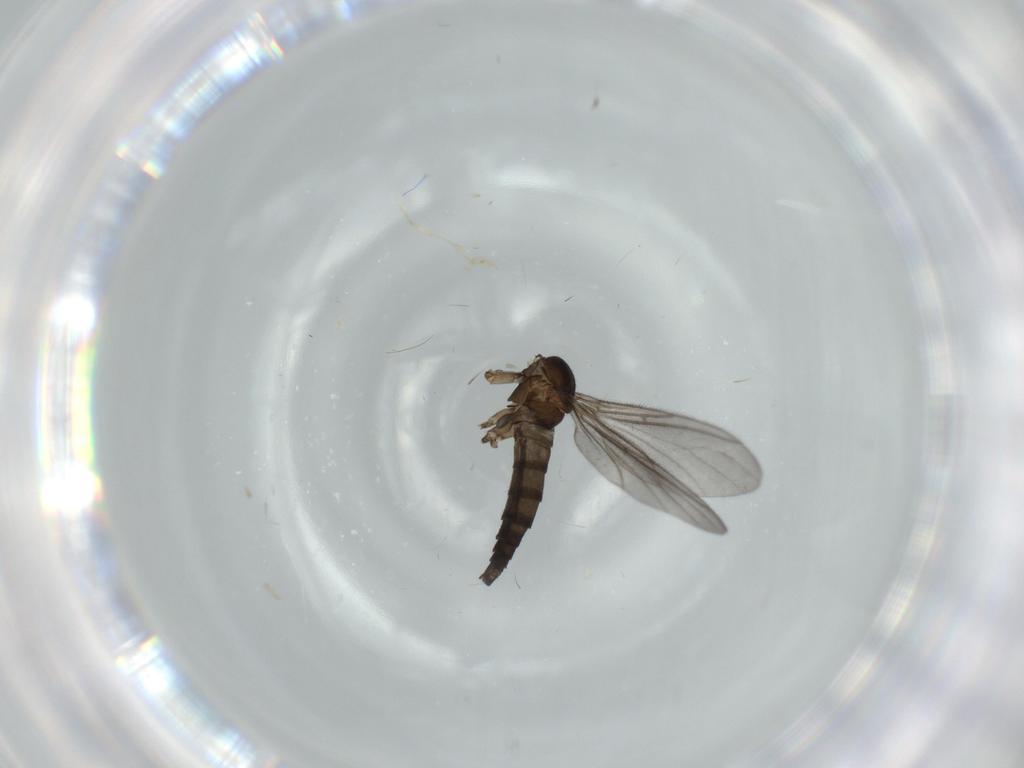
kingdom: Animalia
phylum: Arthropoda
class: Insecta
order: Diptera
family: Sciaridae
